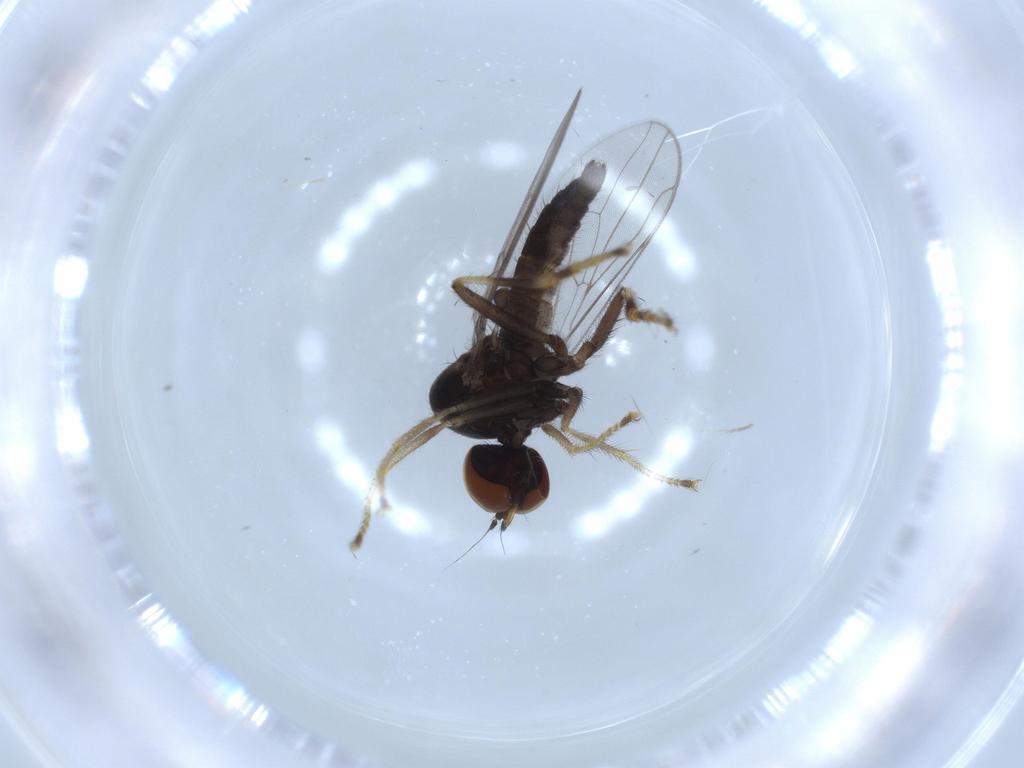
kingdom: Animalia
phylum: Arthropoda
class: Insecta
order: Diptera
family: Hybotidae
